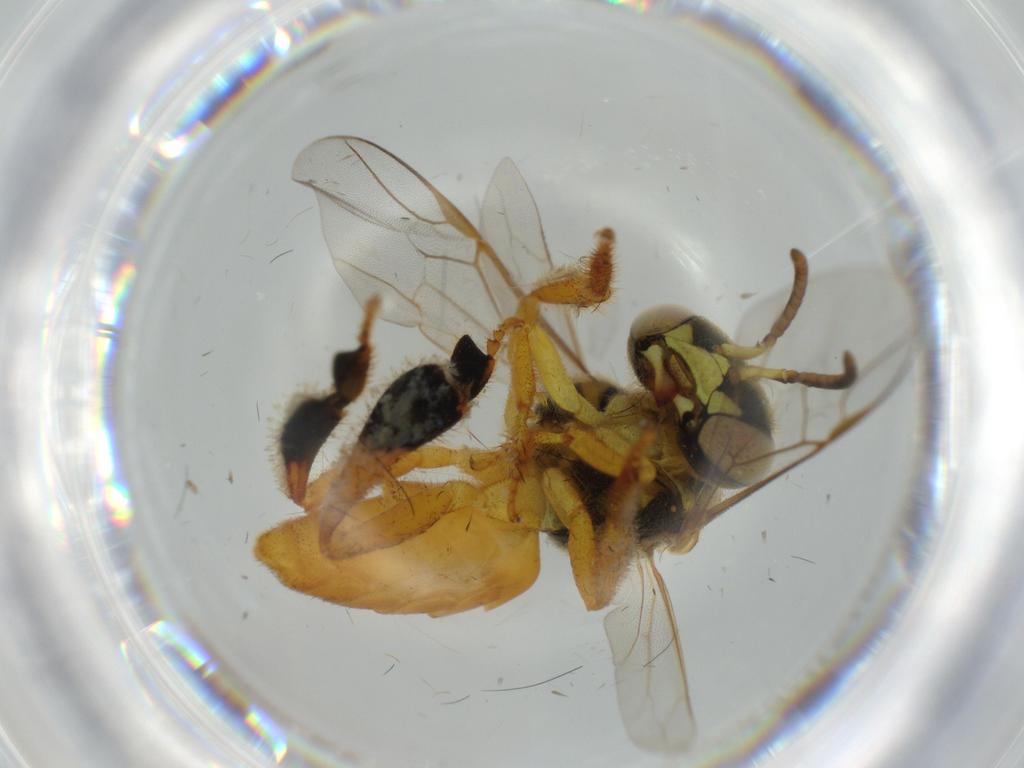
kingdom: Animalia
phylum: Arthropoda
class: Insecta
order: Hymenoptera
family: Apidae
